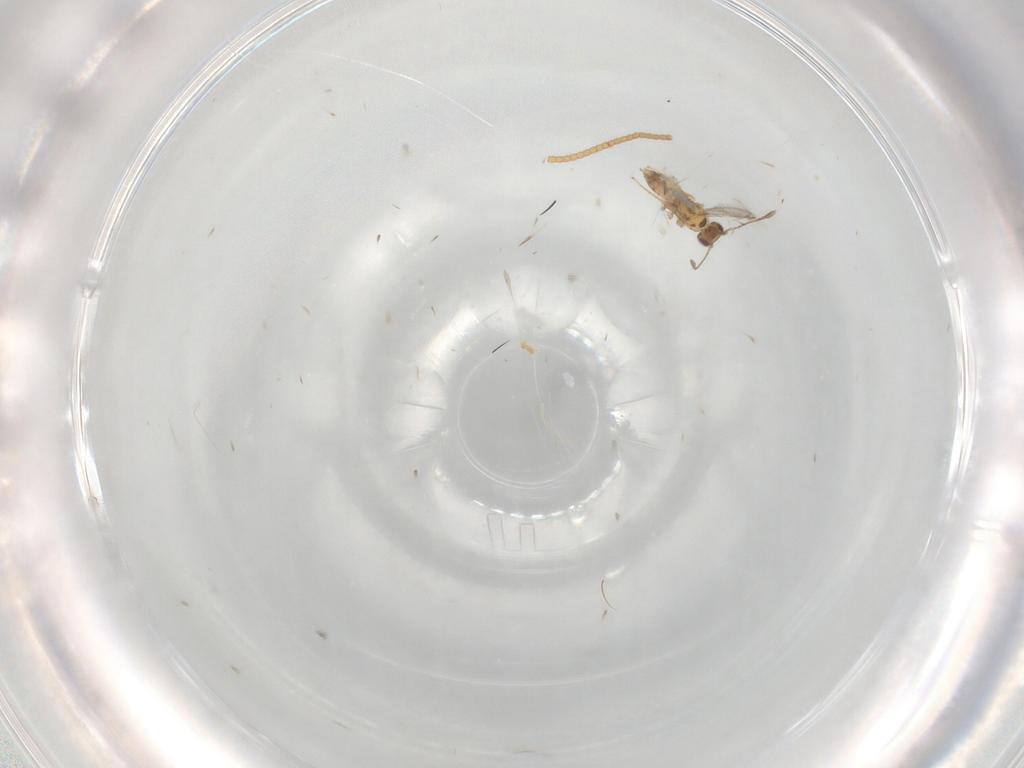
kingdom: Animalia
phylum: Arthropoda
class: Insecta
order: Hymenoptera
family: Mymaridae
